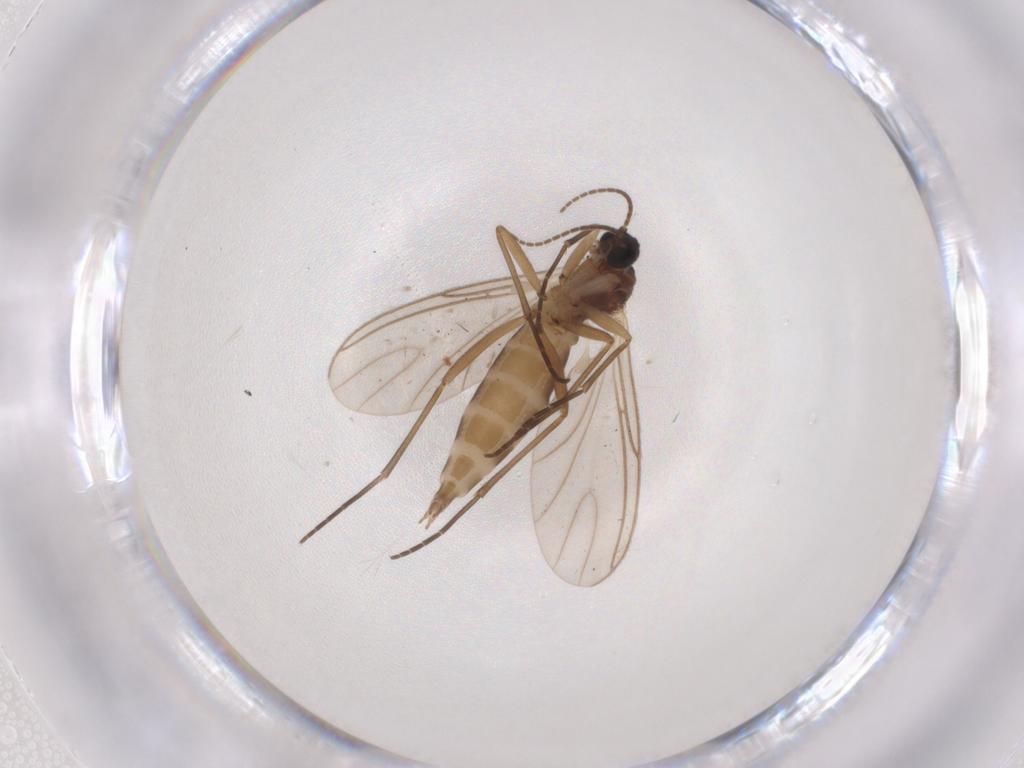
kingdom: Animalia
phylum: Arthropoda
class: Insecta
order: Diptera
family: Sciaridae
